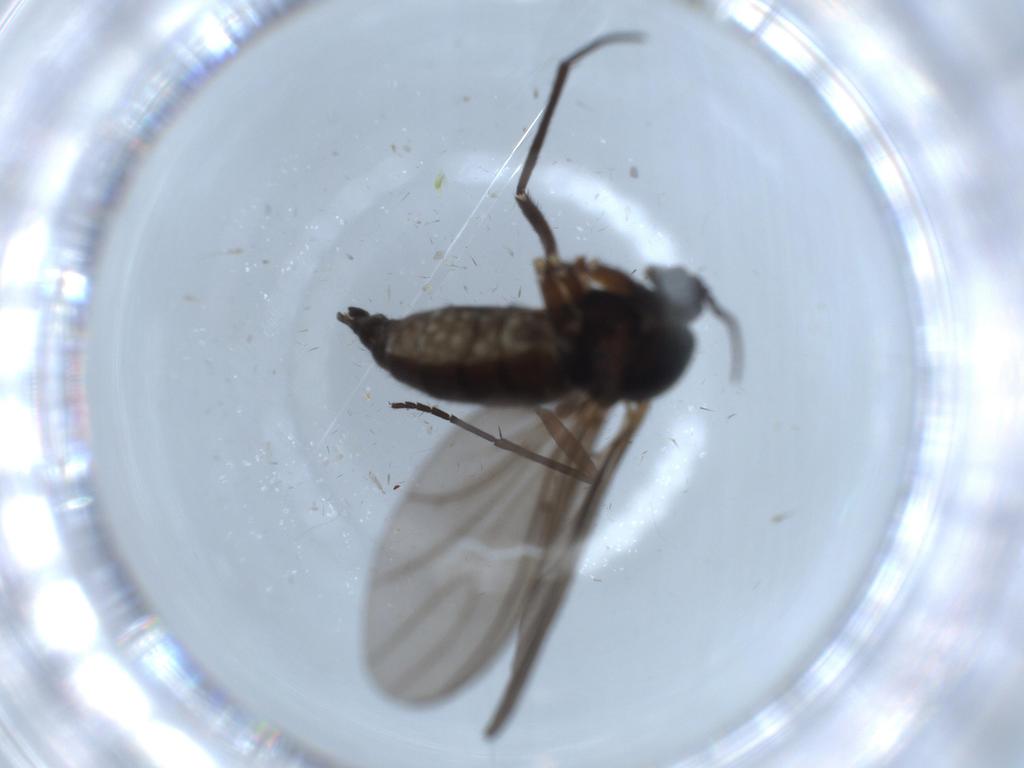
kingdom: Animalia
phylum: Arthropoda
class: Insecta
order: Diptera
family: Sciaridae
